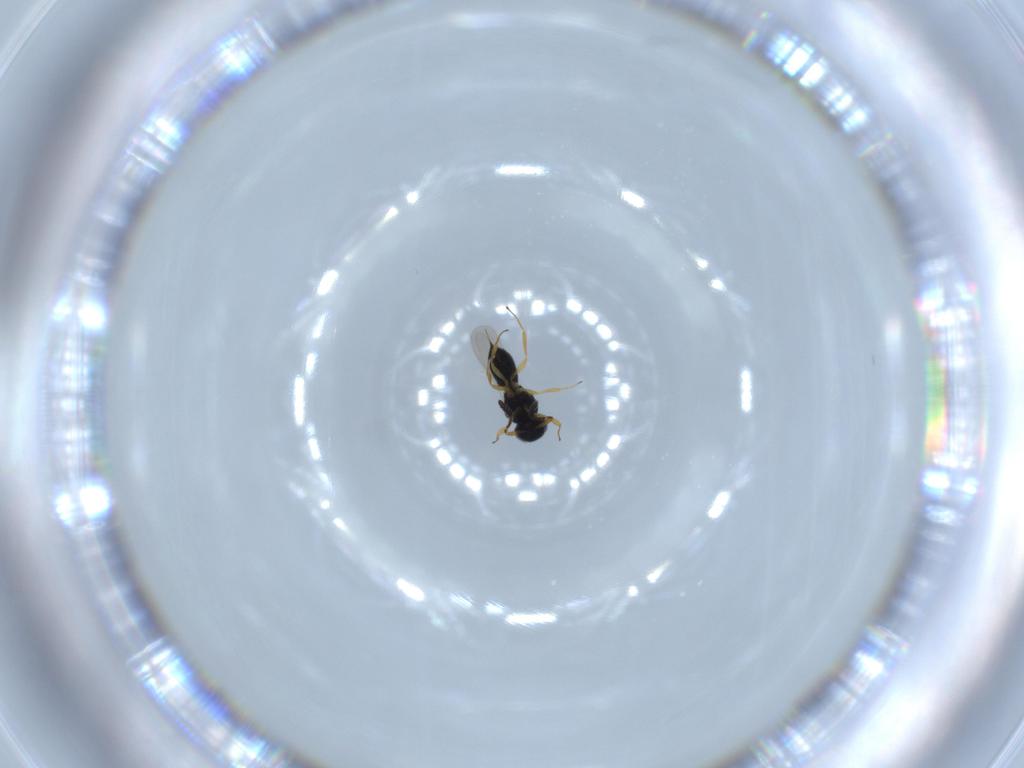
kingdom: Animalia
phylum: Arthropoda
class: Insecta
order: Hymenoptera
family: Scelionidae
